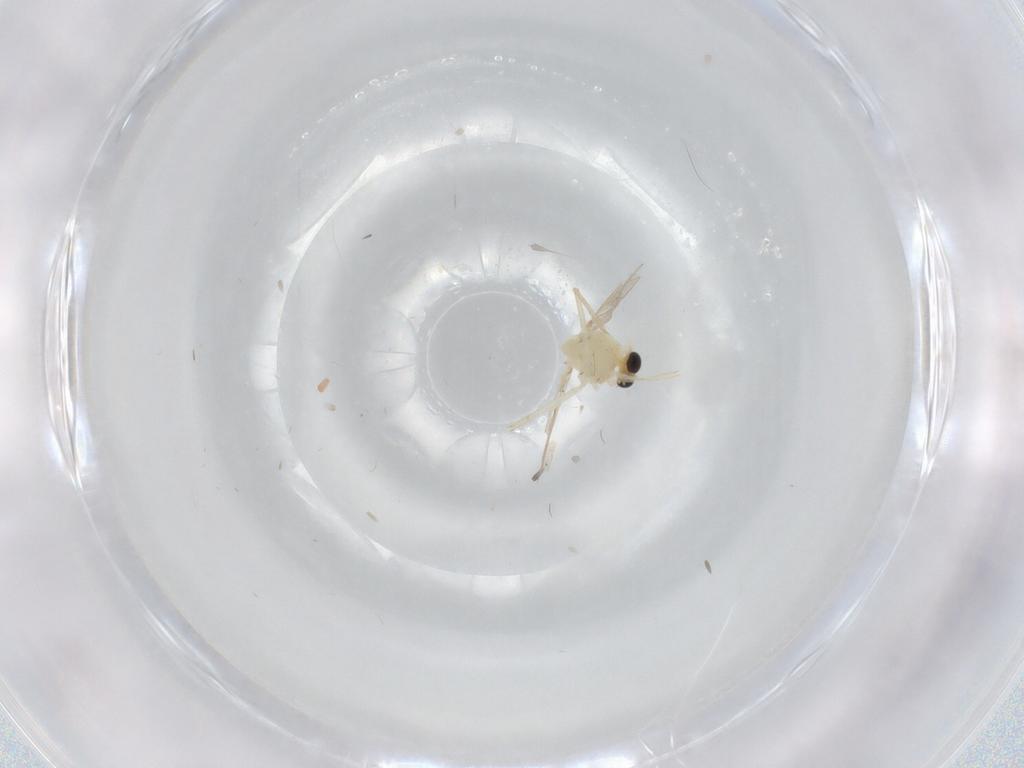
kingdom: Animalia
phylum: Arthropoda
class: Insecta
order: Diptera
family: Chironomidae
